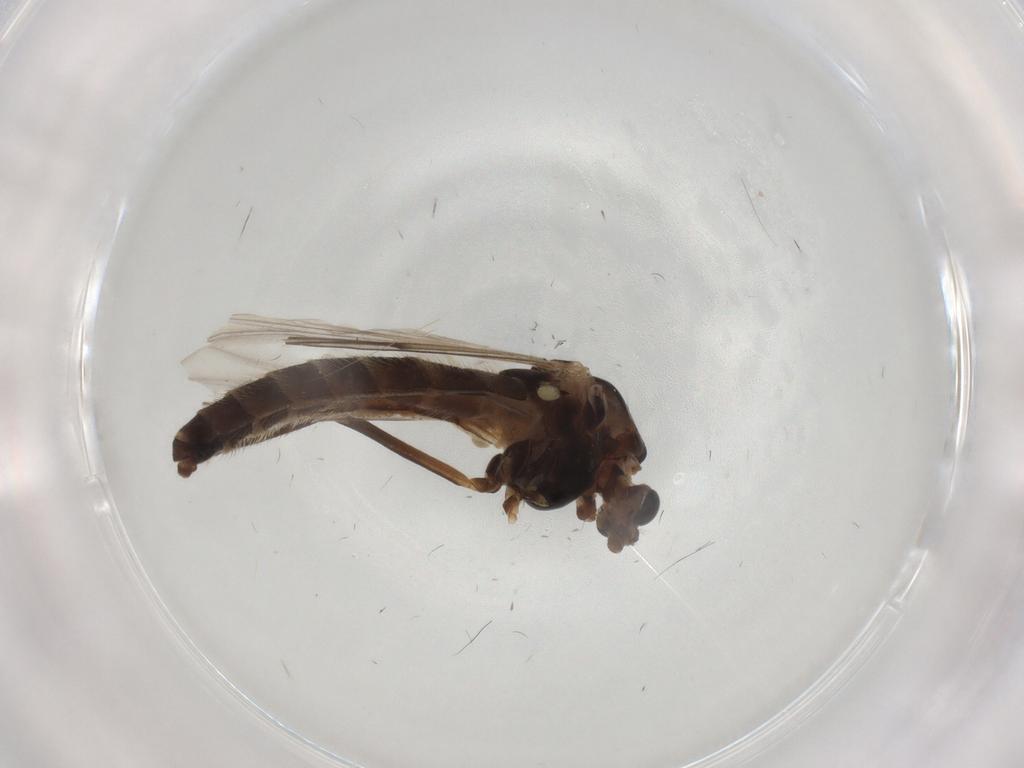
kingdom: Animalia
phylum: Arthropoda
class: Insecta
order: Diptera
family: Chironomidae
